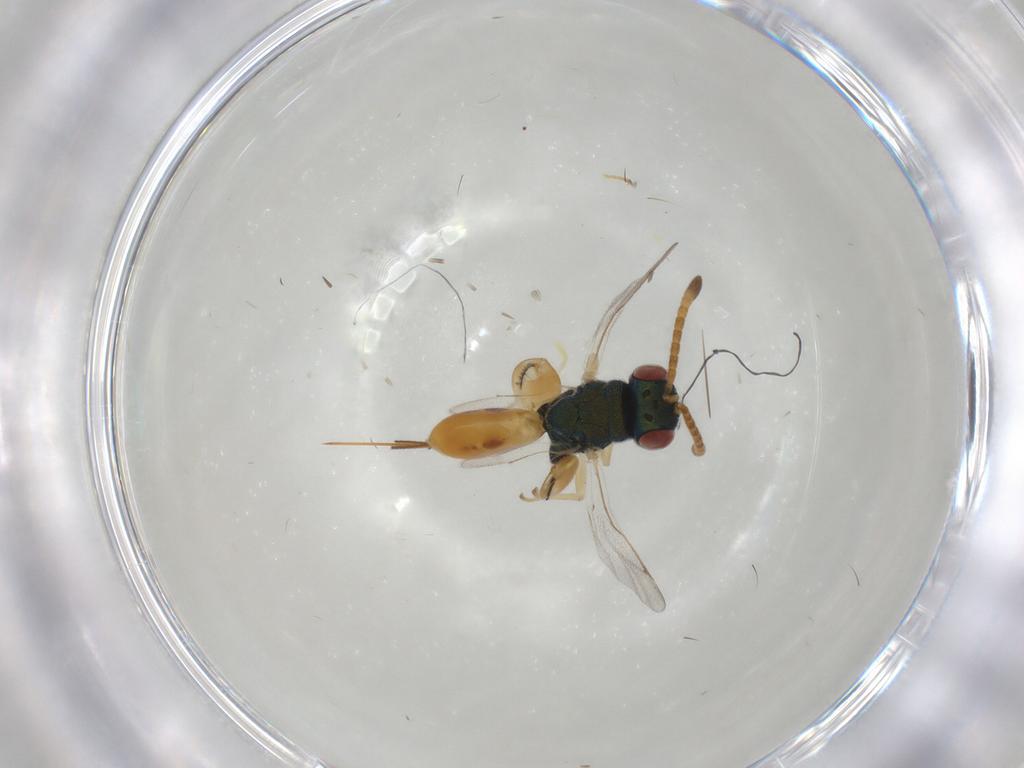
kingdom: Animalia
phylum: Arthropoda
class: Insecta
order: Hymenoptera
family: Torymidae
